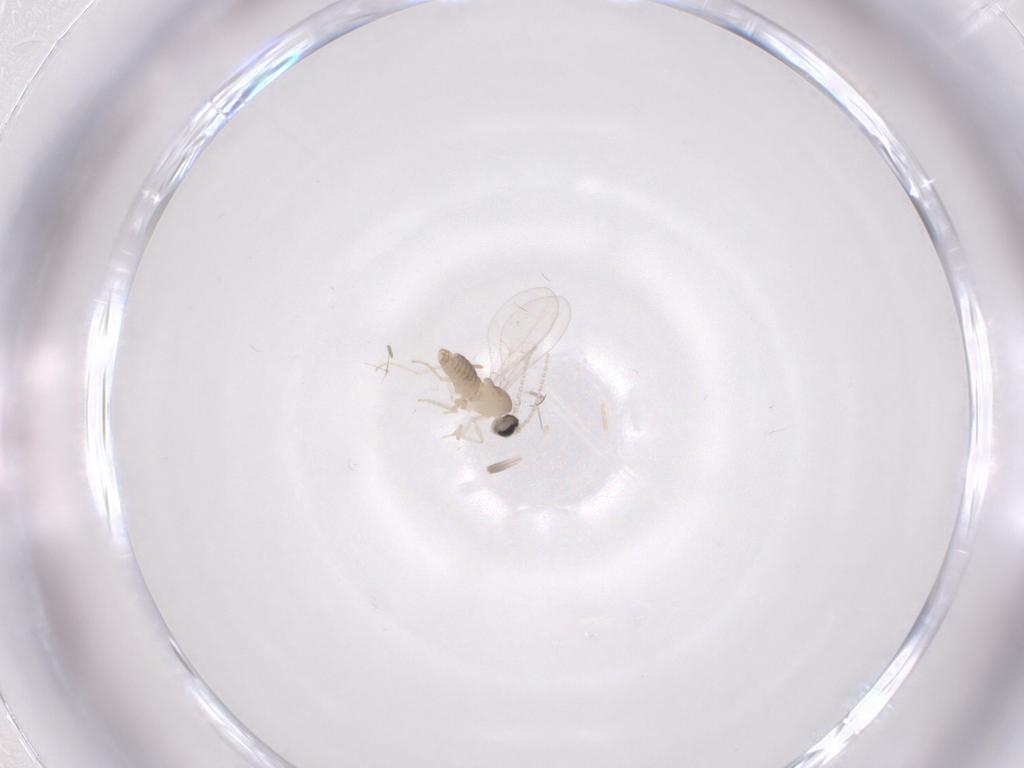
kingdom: Animalia
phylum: Arthropoda
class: Insecta
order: Diptera
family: Cecidomyiidae
